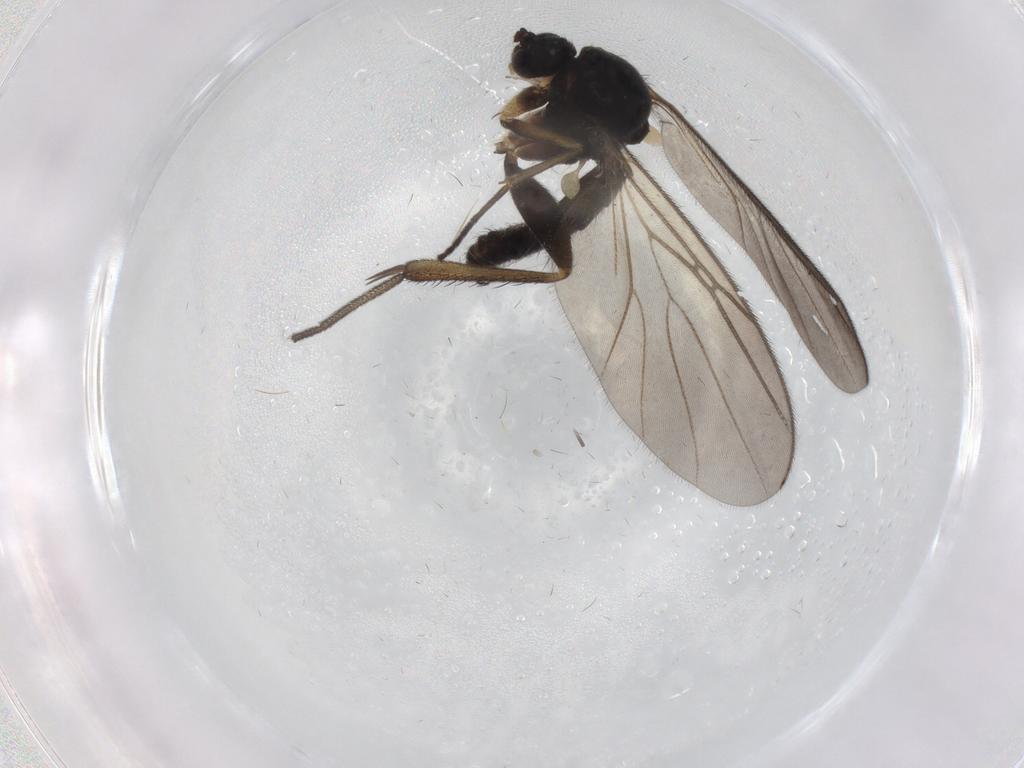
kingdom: Animalia
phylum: Arthropoda
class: Insecta
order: Diptera
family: Mycetophilidae
